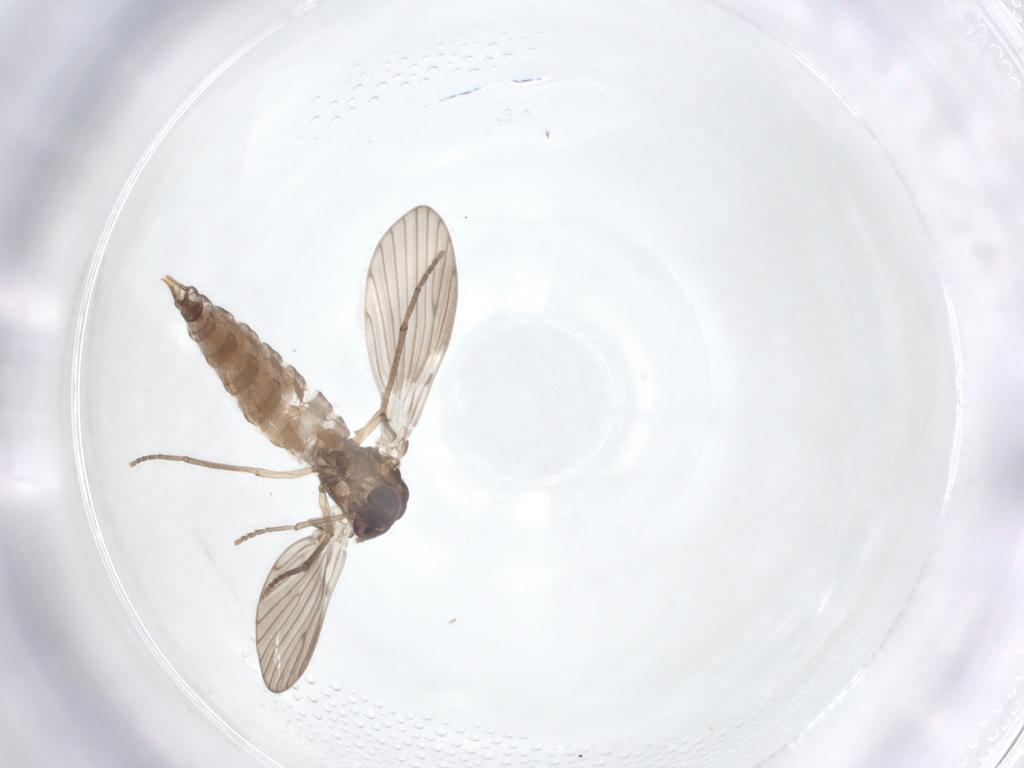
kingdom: Animalia
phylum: Arthropoda
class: Insecta
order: Diptera
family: Psychodidae
